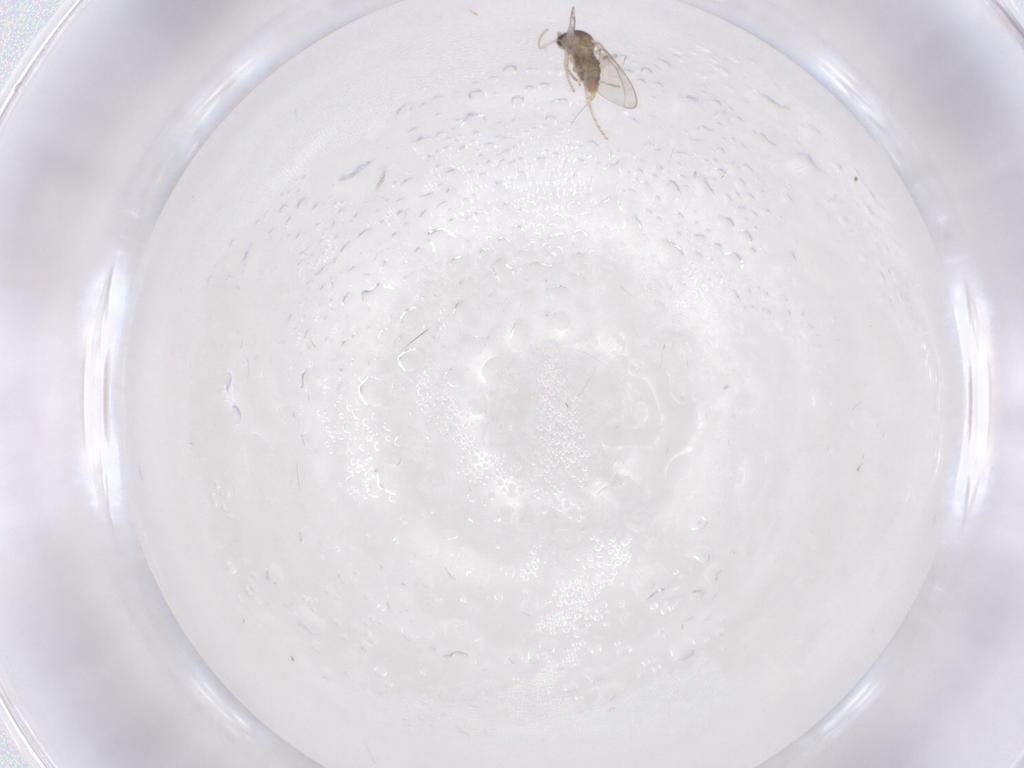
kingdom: Animalia
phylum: Arthropoda
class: Insecta
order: Diptera
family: Cecidomyiidae
